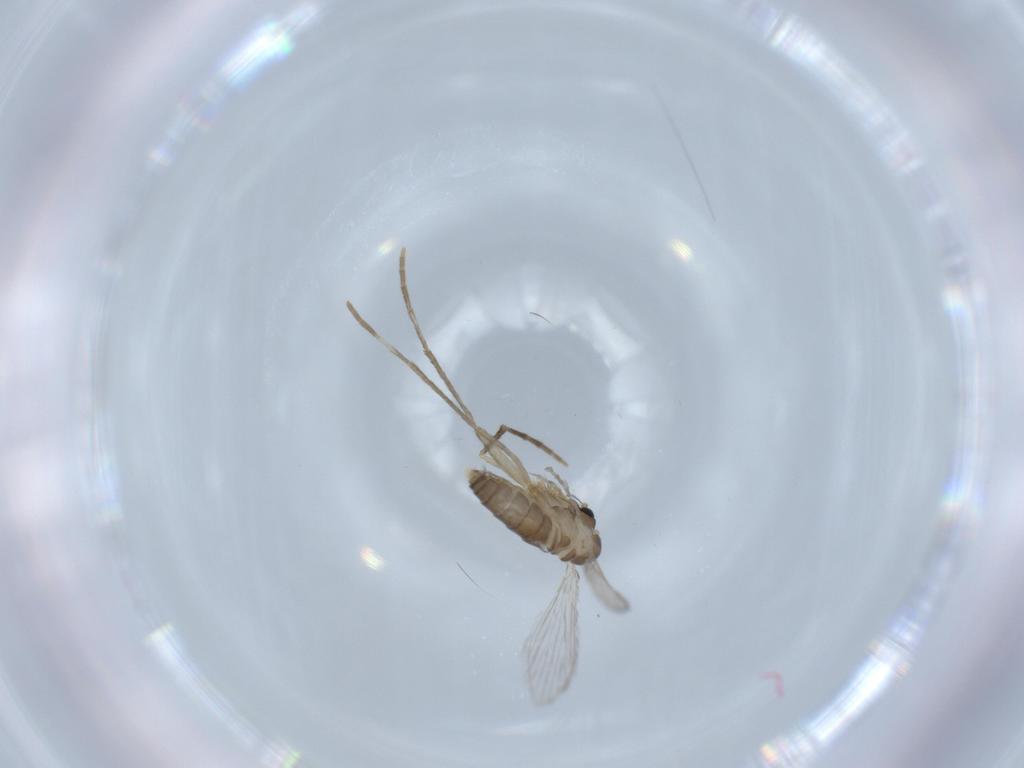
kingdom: Animalia
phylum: Arthropoda
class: Insecta
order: Diptera
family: Psychodidae
